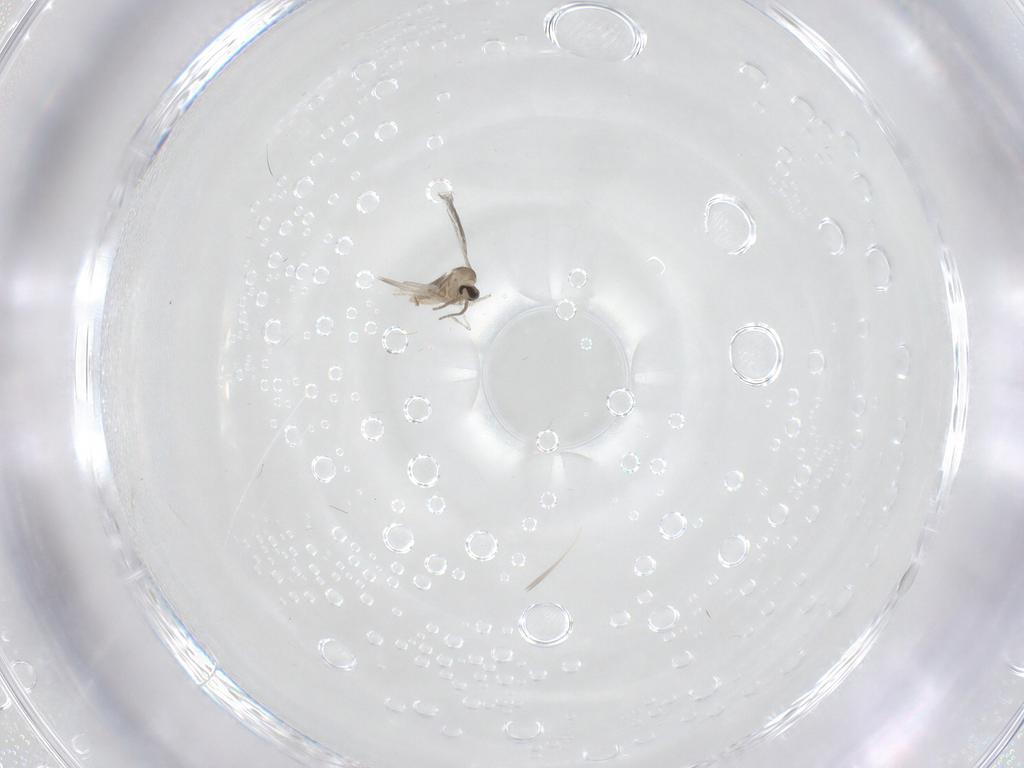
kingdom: Animalia
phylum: Arthropoda
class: Insecta
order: Diptera
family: Cecidomyiidae
